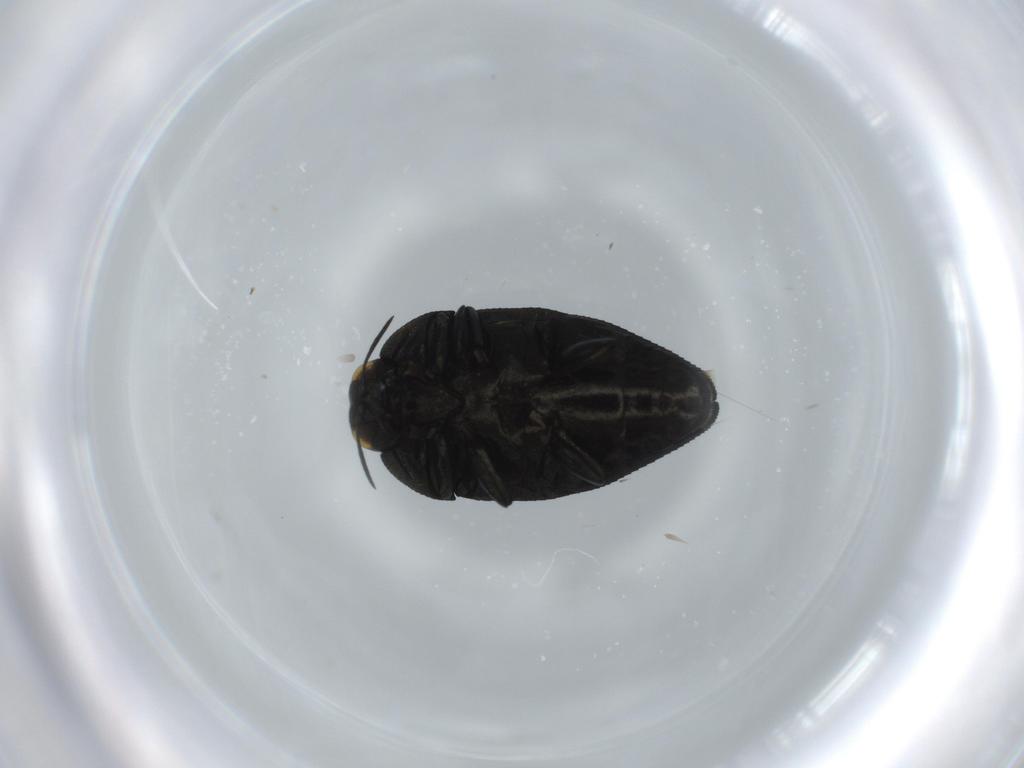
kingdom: Animalia
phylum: Arthropoda
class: Insecta
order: Coleoptera
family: Buprestidae
